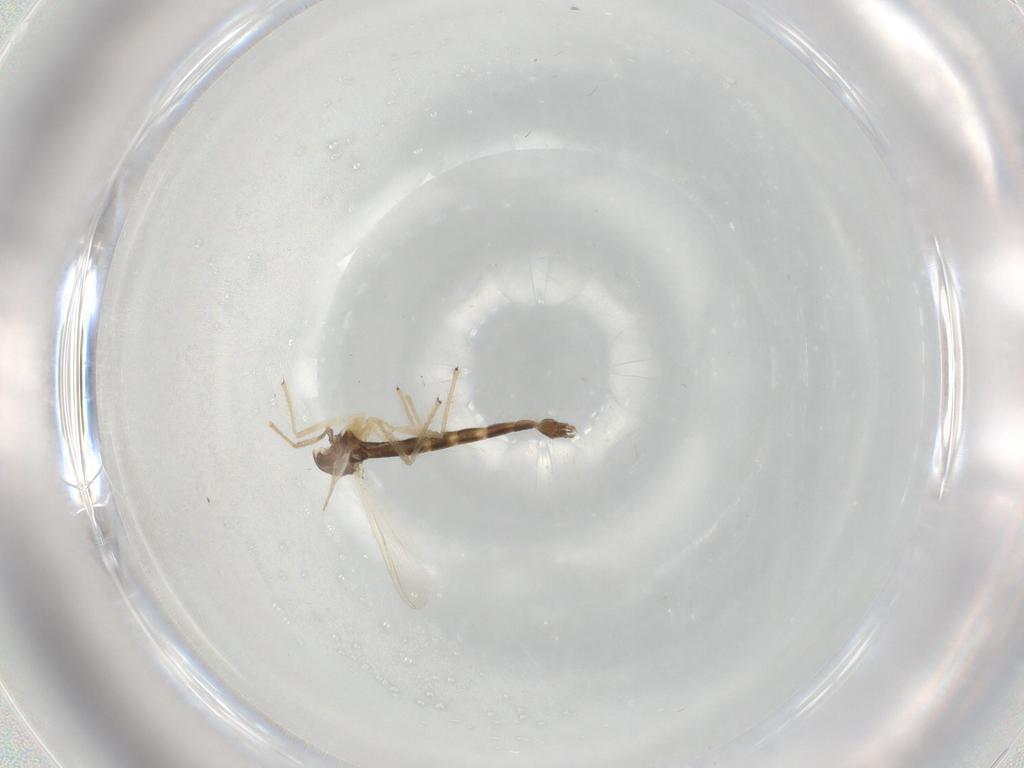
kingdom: Animalia
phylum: Arthropoda
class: Insecta
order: Diptera
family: Chironomidae
